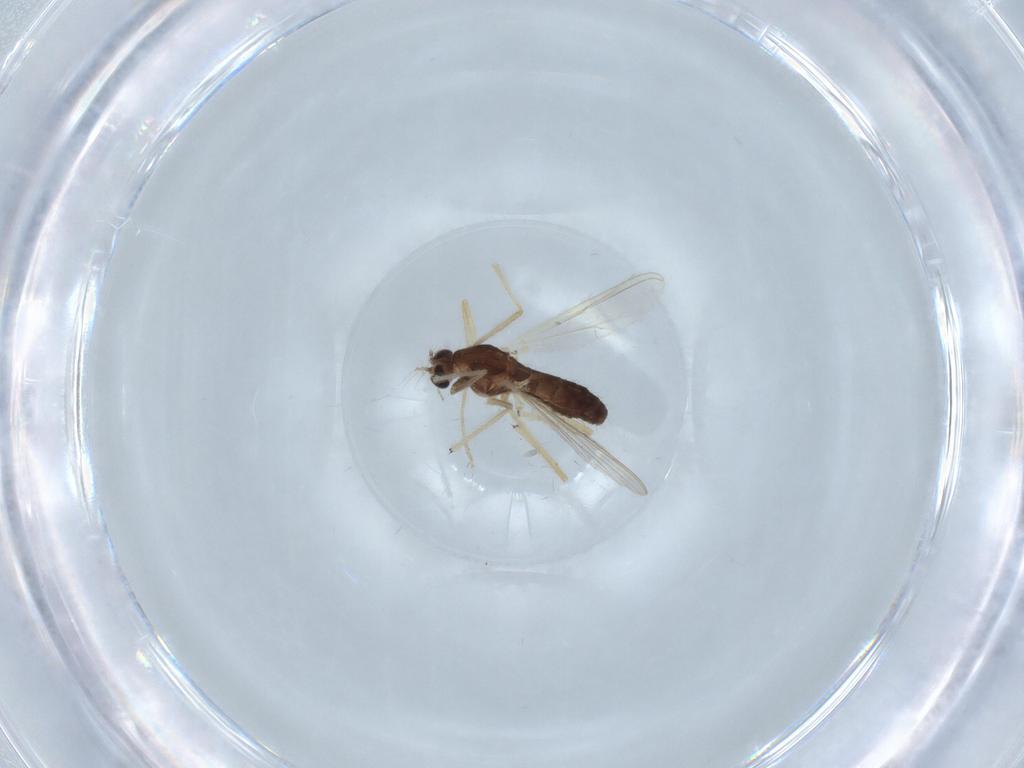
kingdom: Animalia
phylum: Arthropoda
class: Insecta
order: Diptera
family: Chironomidae
